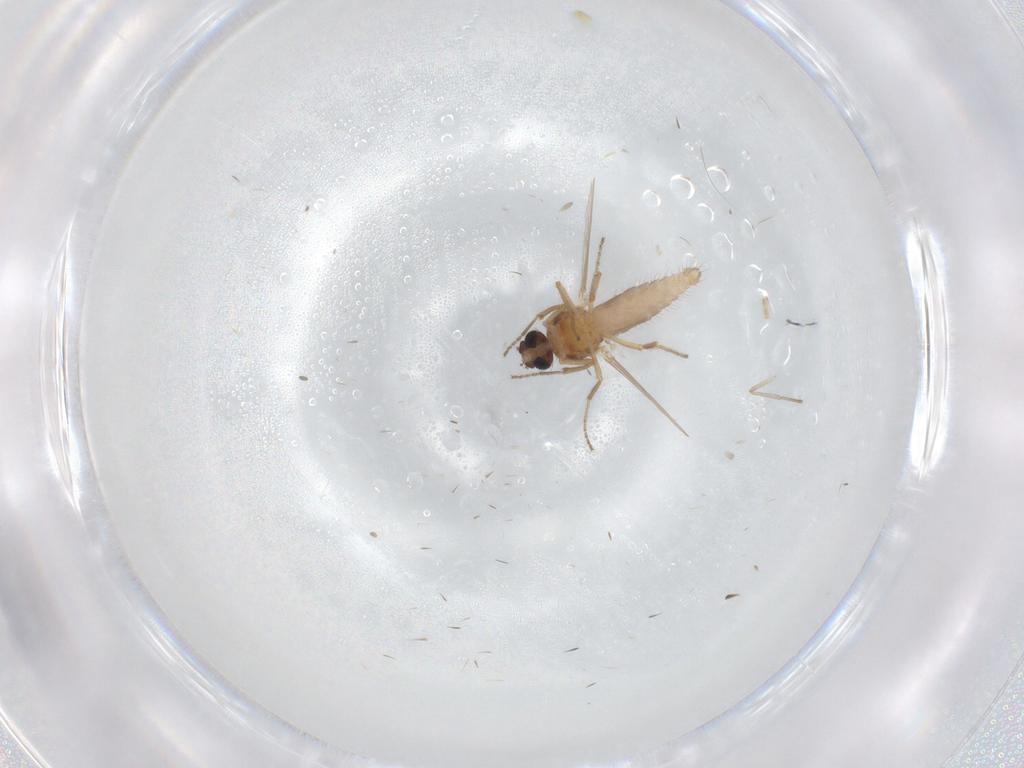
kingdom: Animalia
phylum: Arthropoda
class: Insecta
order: Diptera
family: Ceratopogonidae
